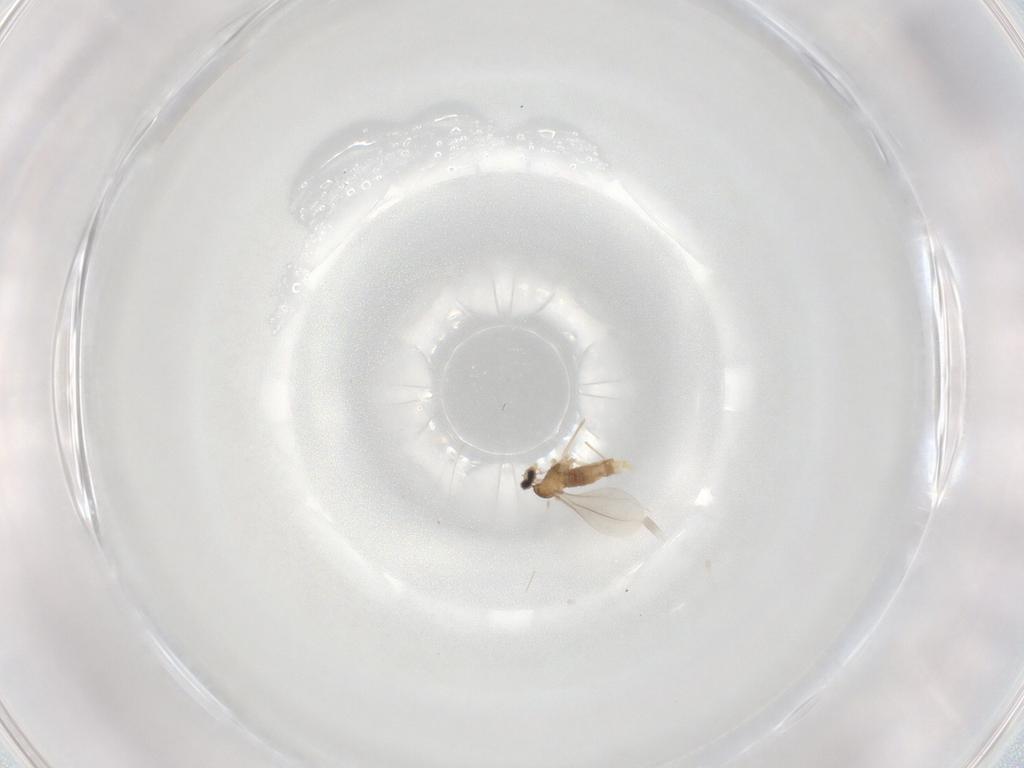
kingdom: Animalia
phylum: Arthropoda
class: Insecta
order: Diptera
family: Cecidomyiidae
